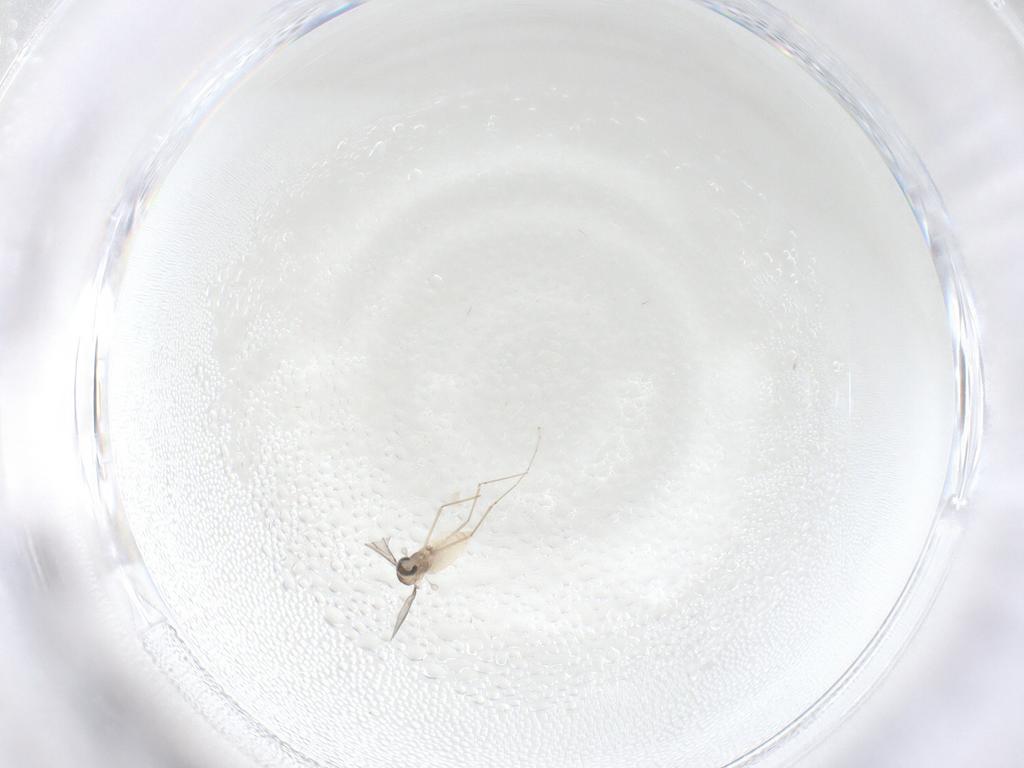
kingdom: Animalia
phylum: Arthropoda
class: Insecta
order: Diptera
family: Cecidomyiidae
